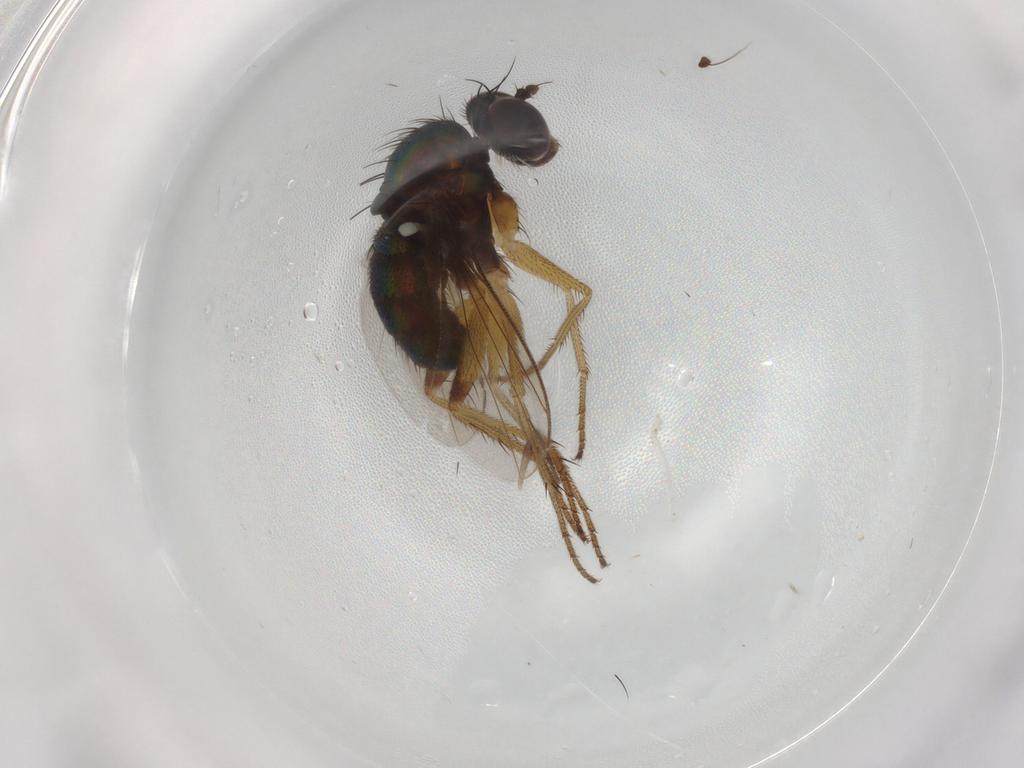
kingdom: Animalia
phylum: Arthropoda
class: Insecta
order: Diptera
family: Dolichopodidae
